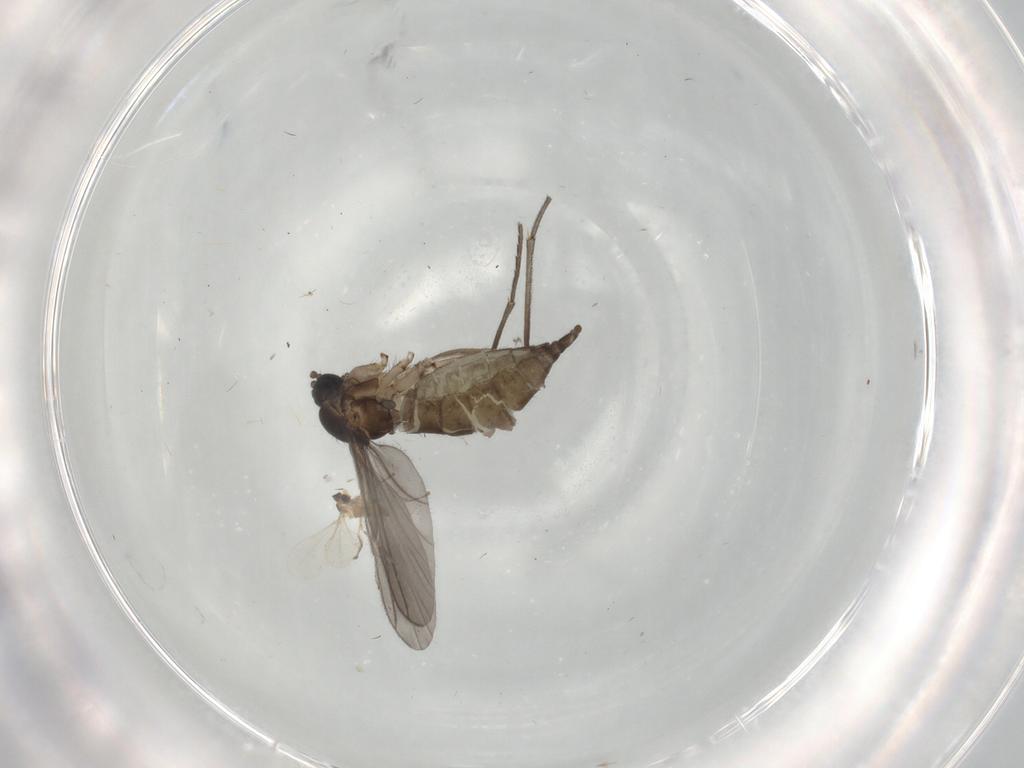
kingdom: Animalia
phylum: Arthropoda
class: Insecta
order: Diptera
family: Sciaridae
